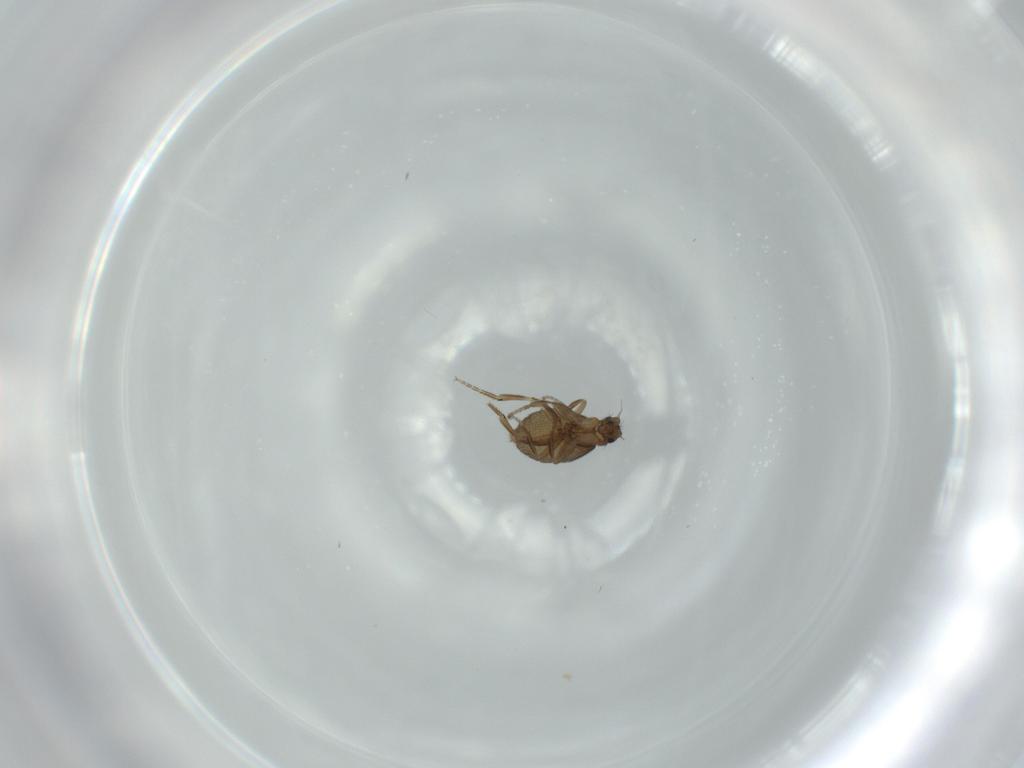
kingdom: Animalia
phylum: Arthropoda
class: Insecta
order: Diptera
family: Phoridae
